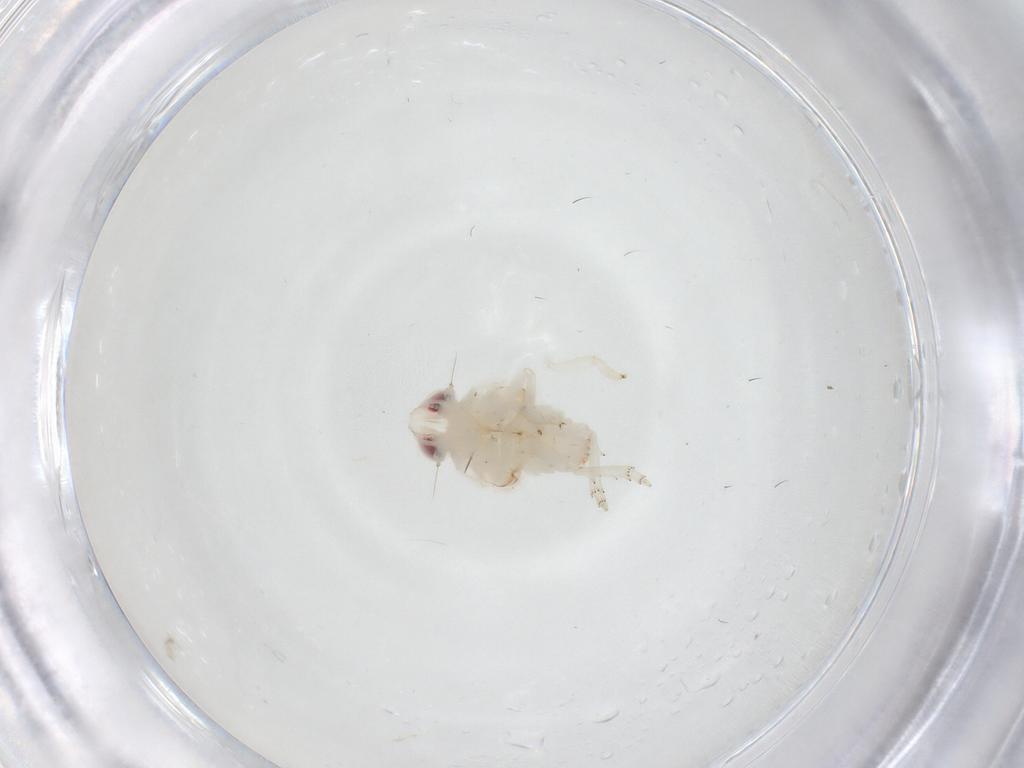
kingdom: Animalia
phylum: Arthropoda
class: Insecta
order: Hemiptera
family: Nogodinidae
